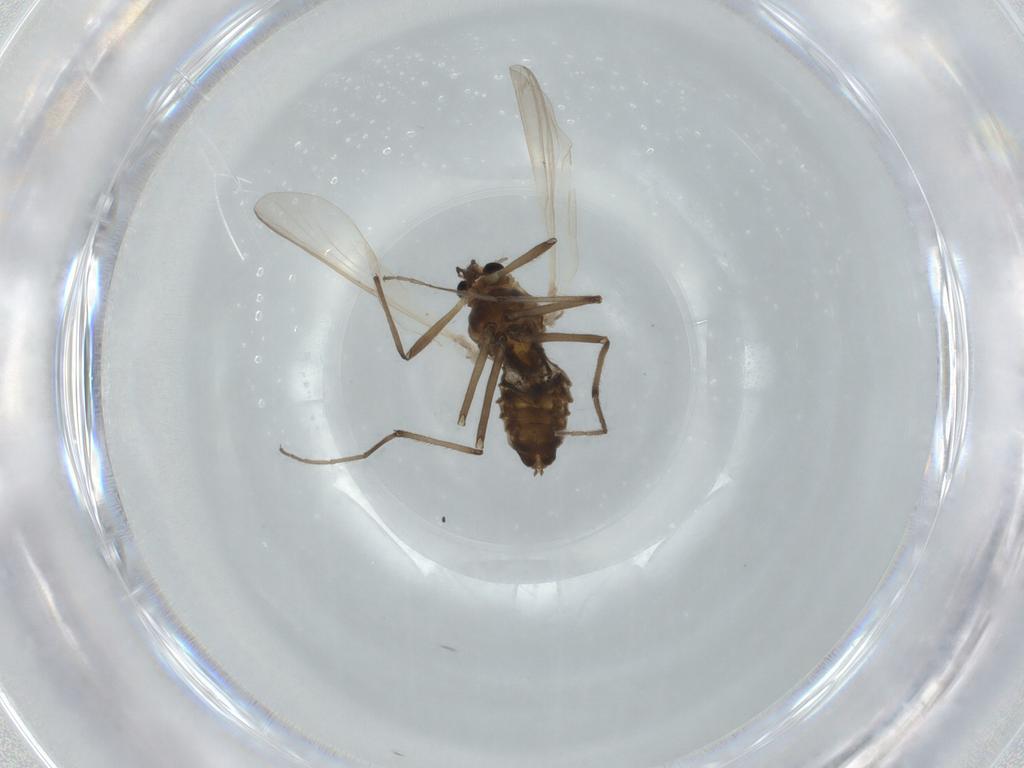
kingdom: Animalia
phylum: Arthropoda
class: Insecta
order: Diptera
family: Chironomidae
